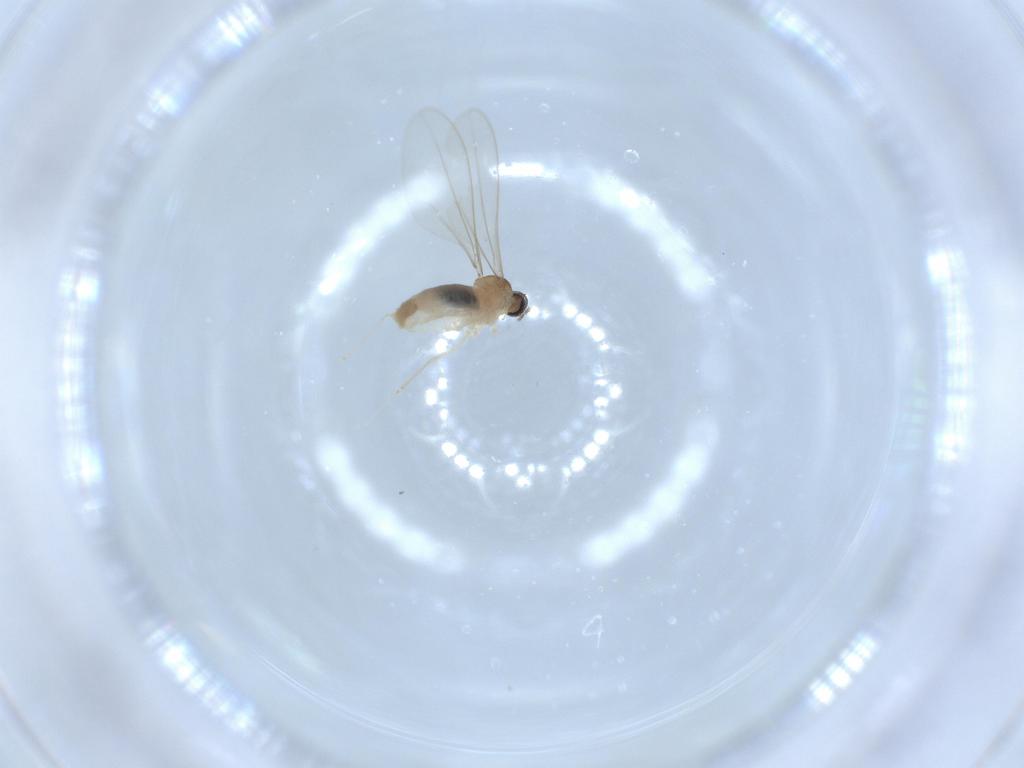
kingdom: Animalia
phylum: Arthropoda
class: Insecta
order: Diptera
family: Cecidomyiidae
